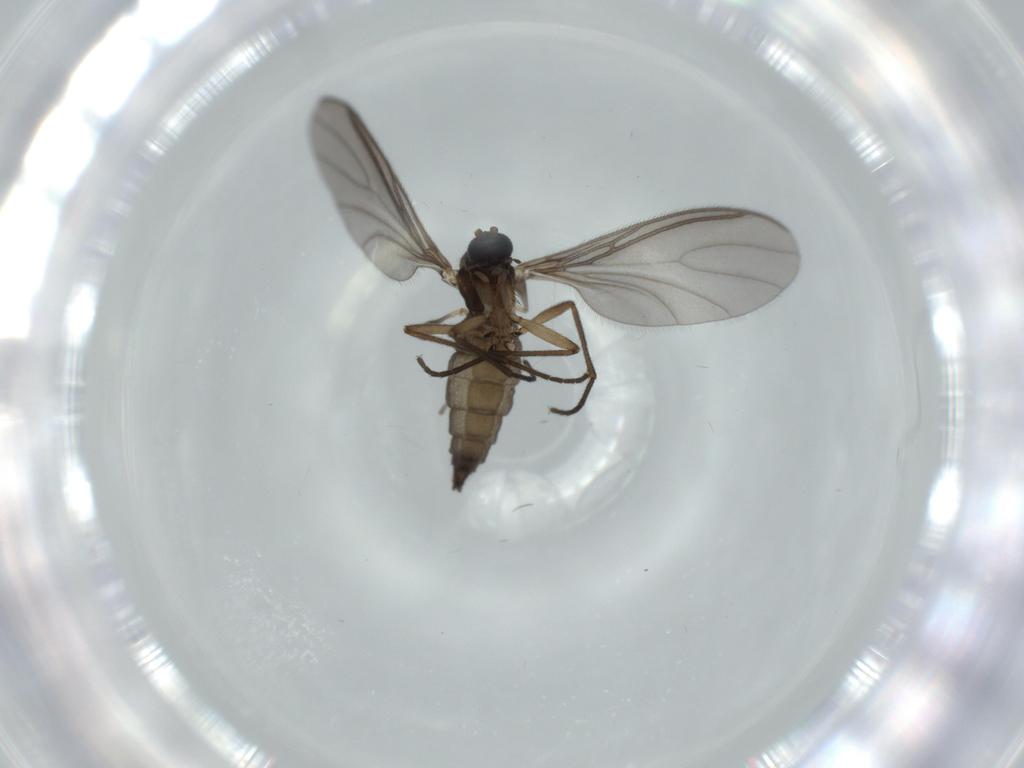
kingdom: Animalia
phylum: Arthropoda
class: Insecta
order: Diptera
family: Sciaridae
